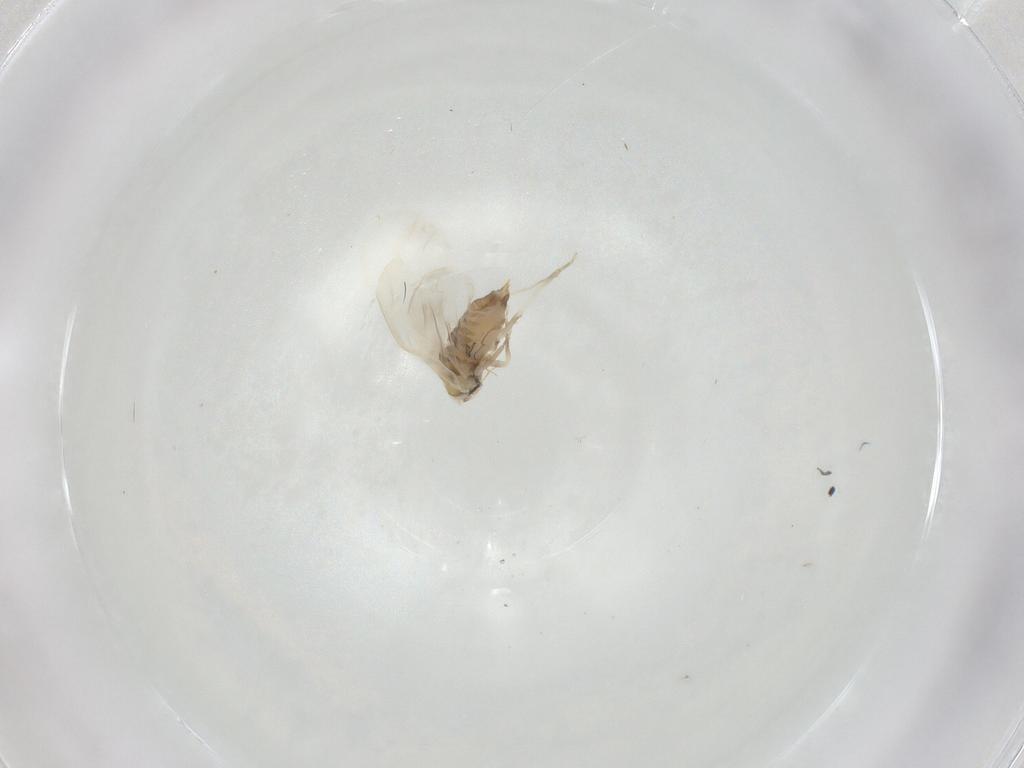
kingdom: Animalia
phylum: Arthropoda
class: Insecta
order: Hemiptera
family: Aleyrodidae
